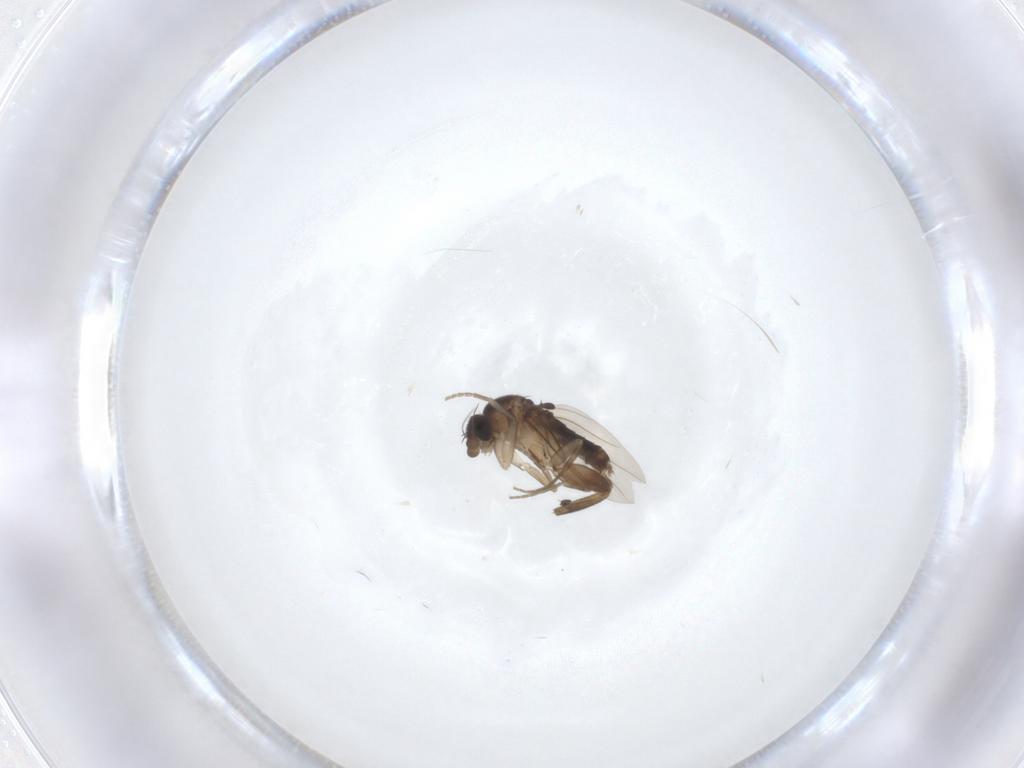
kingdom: Animalia
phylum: Arthropoda
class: Insecta
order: Diptera
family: Phoridae
